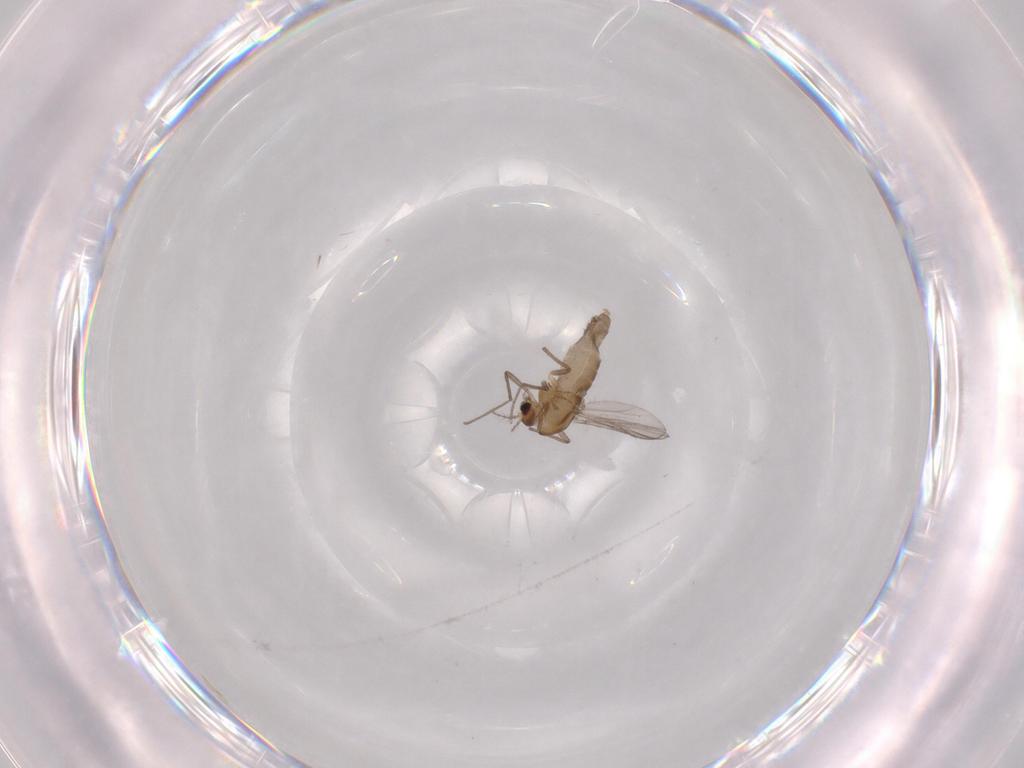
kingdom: Animalia
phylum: Arthropoda
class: Insecta
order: Diptera
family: Chironomidae
